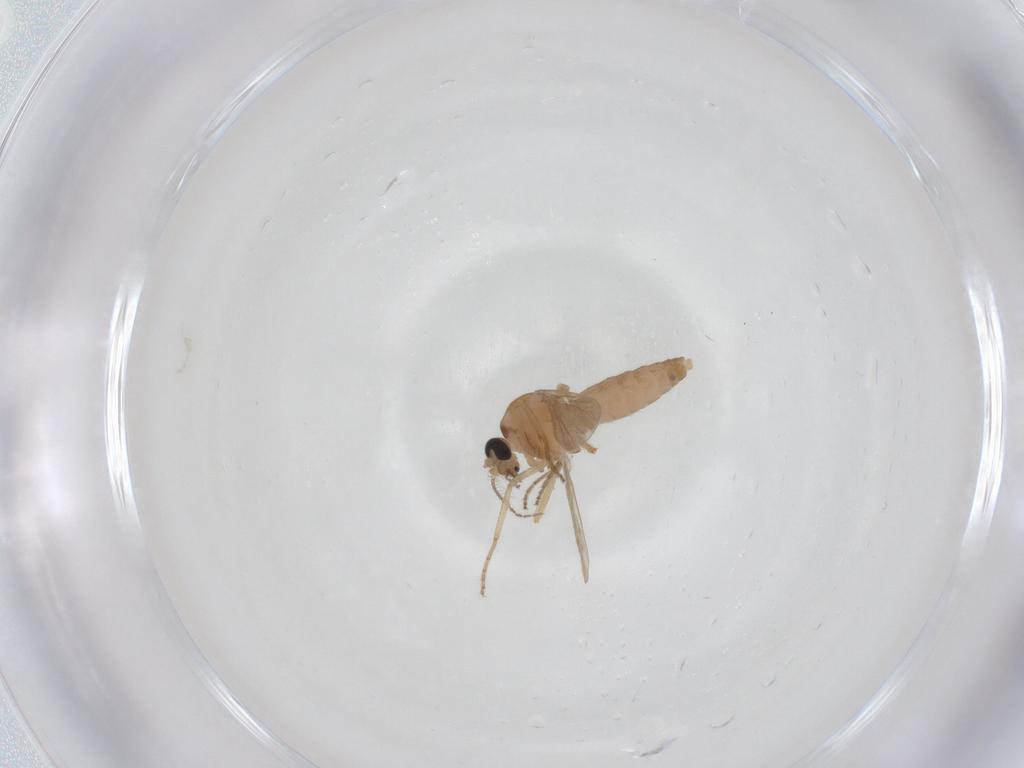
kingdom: Animalia
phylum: Arthropoda
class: Insecta
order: Diptera
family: Ceratopogonidae
